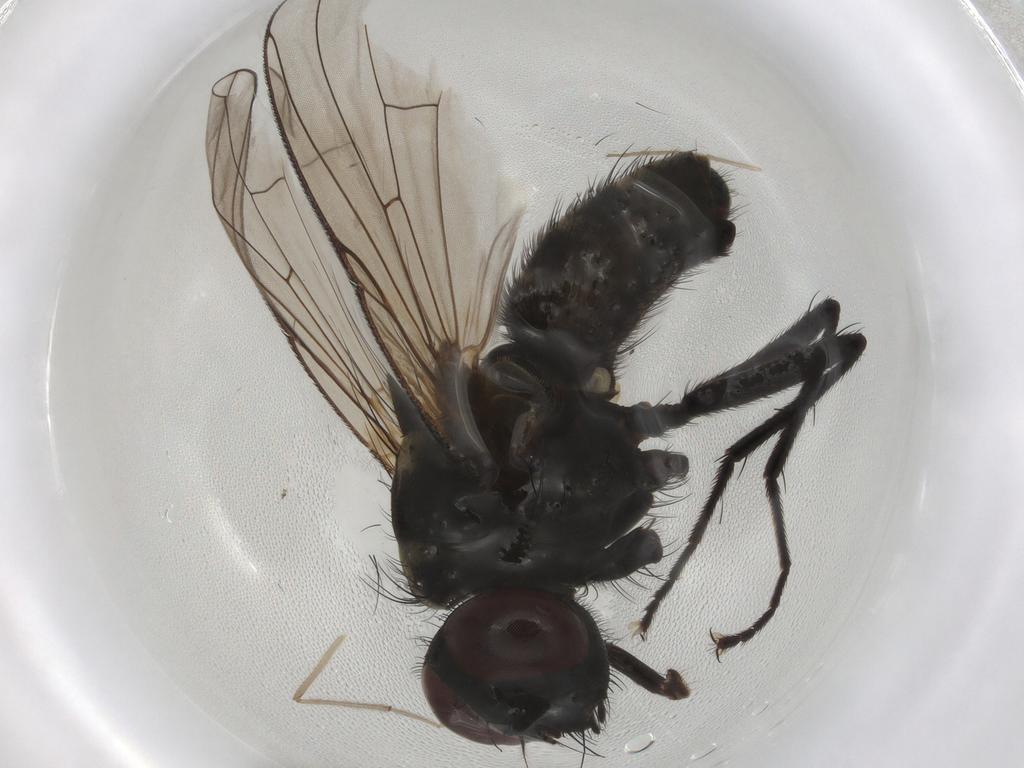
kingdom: Animalia
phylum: Arthropoda
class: Insecta
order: Diptera
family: Muscidae
